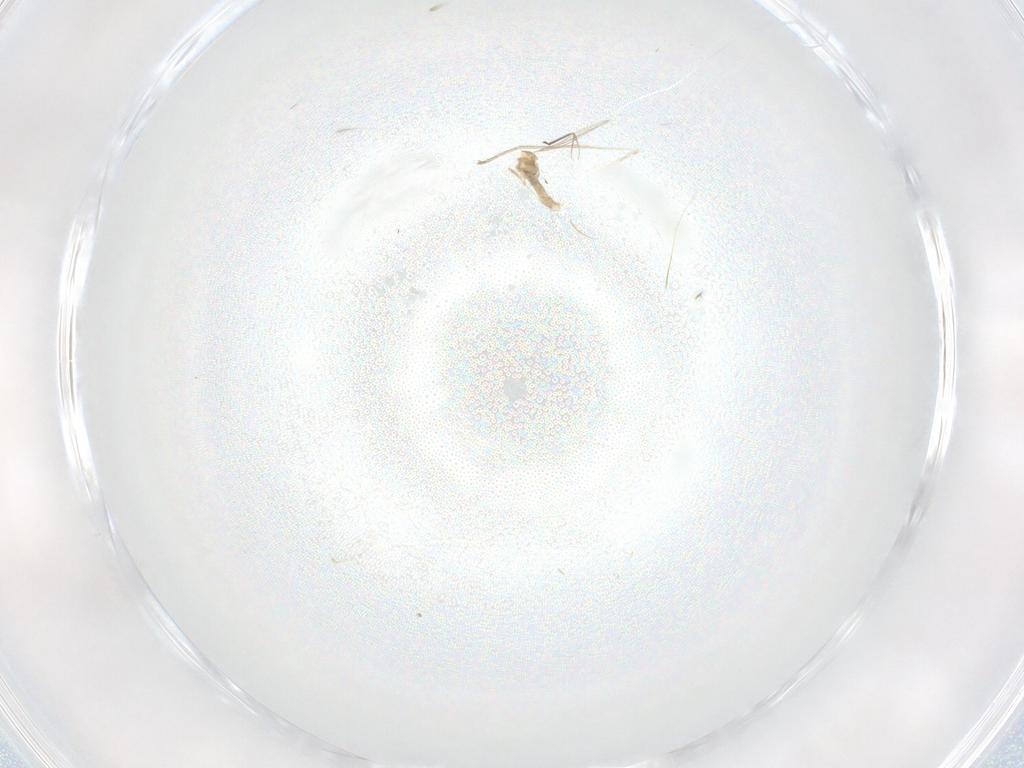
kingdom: Animalia
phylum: Arthropoda
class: Insecta
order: Diptera
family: Cecidomyiidae
